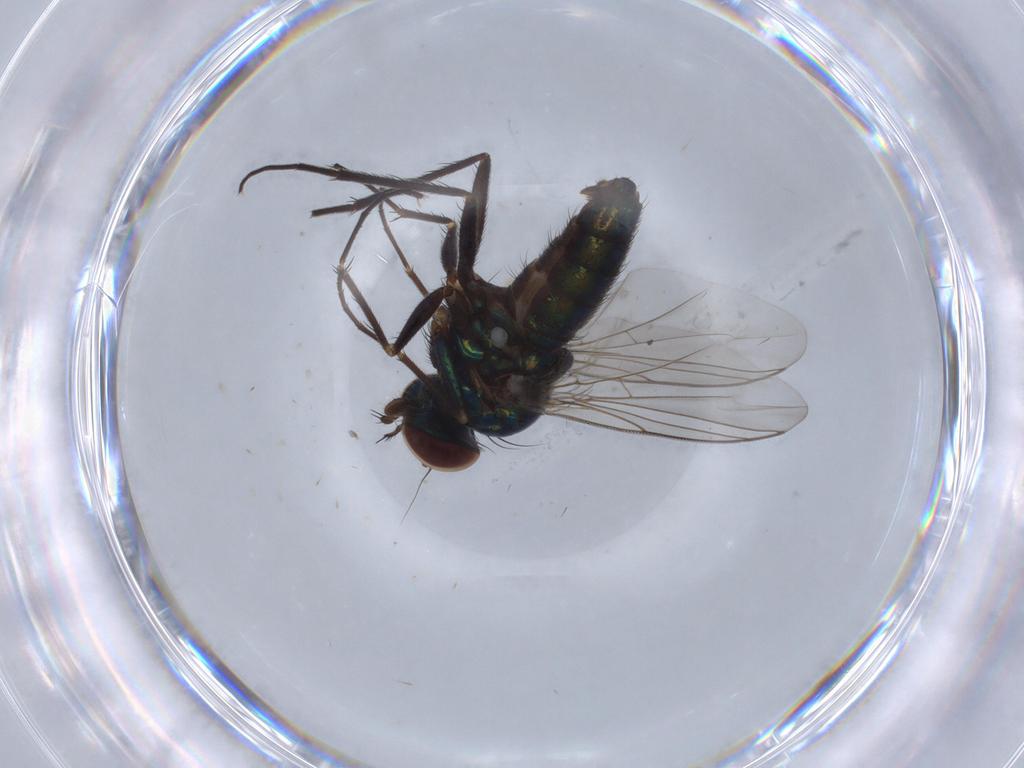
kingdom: Animalia
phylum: Arthropoda
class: Insecta
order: Diptera
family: Dolichopodidae
